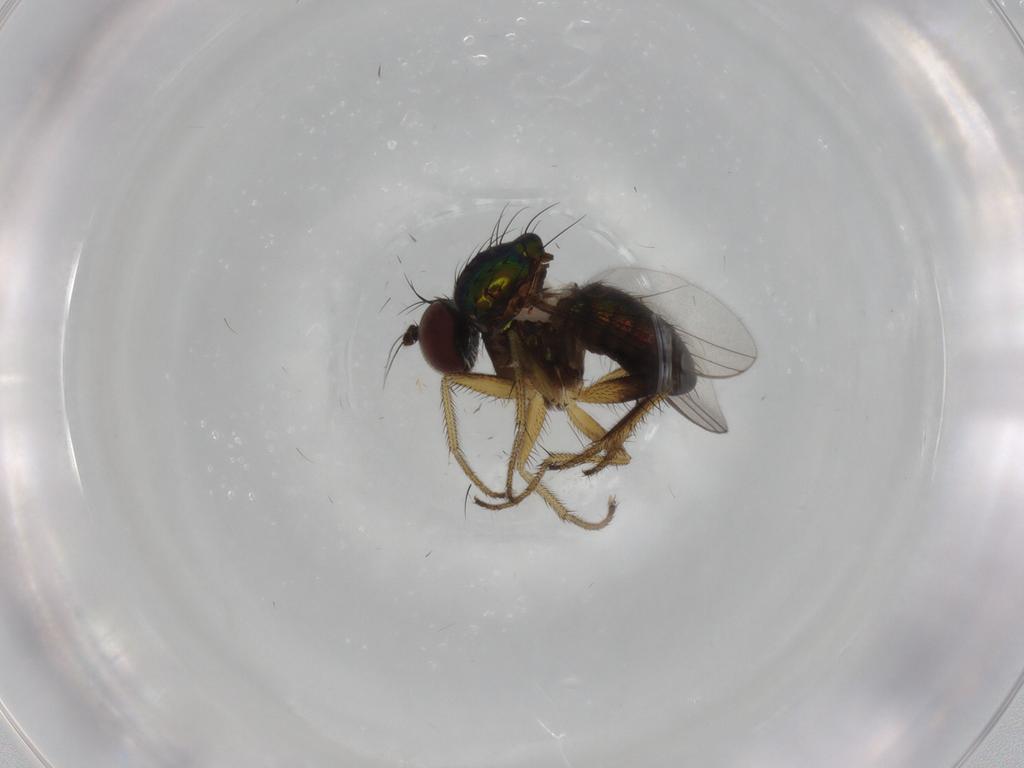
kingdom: Animalia
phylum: Arthropoda
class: Insecta
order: Diptera
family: Dolichopodidae
